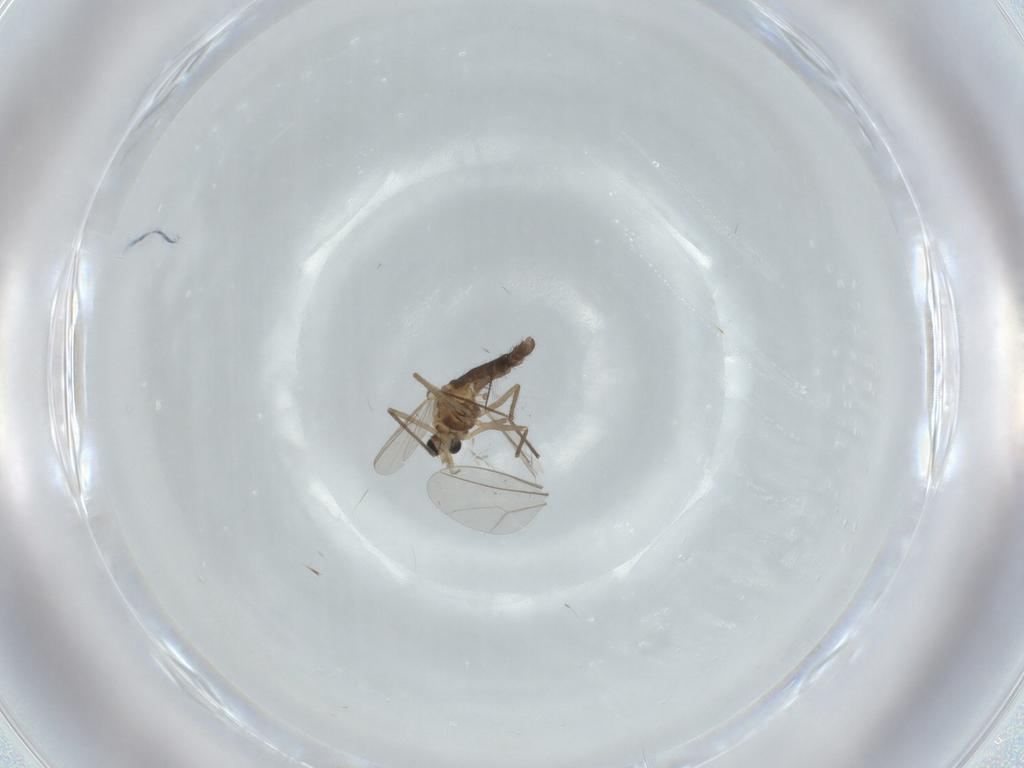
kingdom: Animalia
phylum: Arthropoda
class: Insecta
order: Diptera
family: Chironomidae
